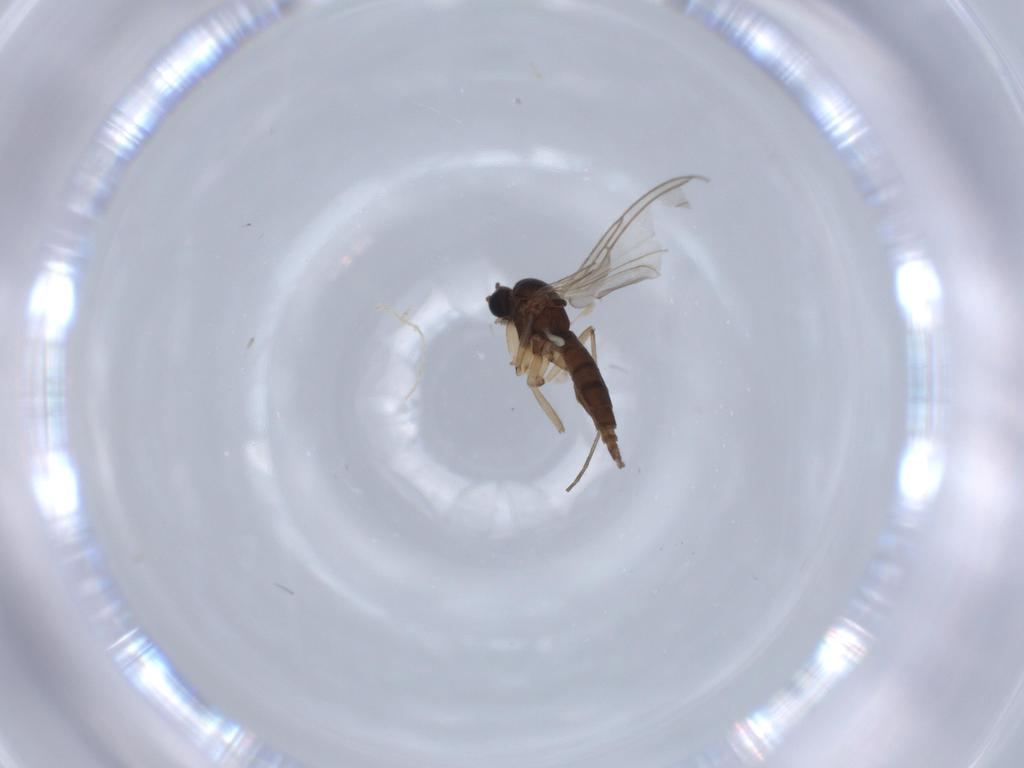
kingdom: Animalia
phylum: Arthropoda
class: Insecta
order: Diptera
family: Sciaridae
